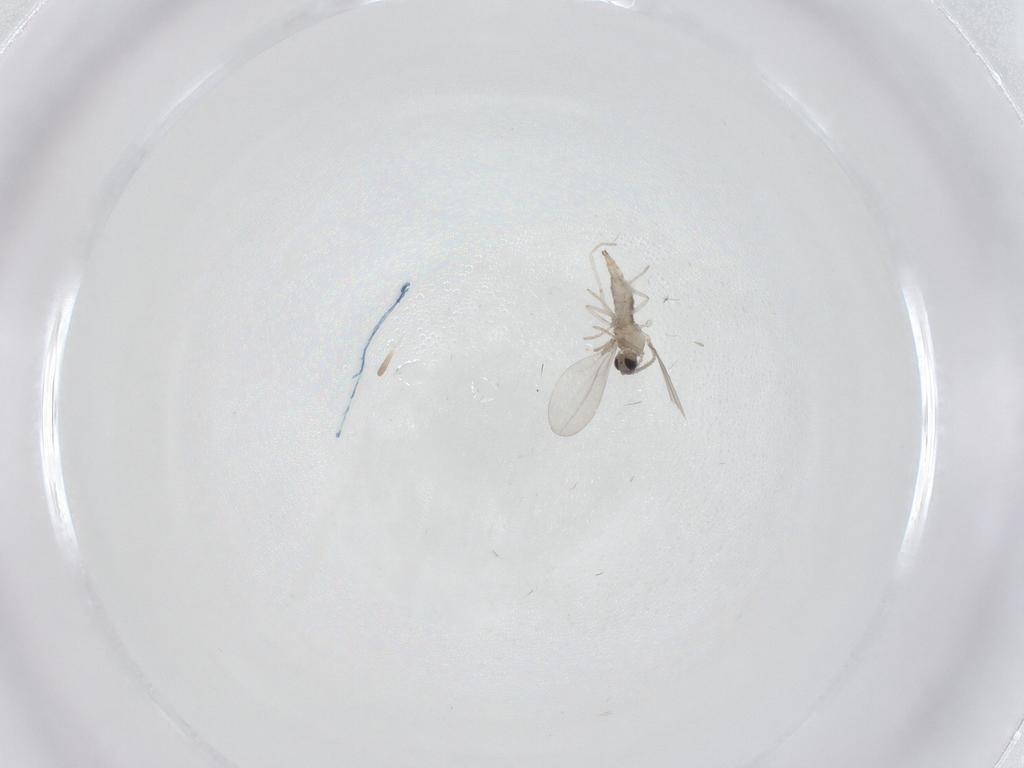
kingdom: Animalia
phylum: Arthropoda
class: Insecta
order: Diptera
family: Cecidomyiidae
